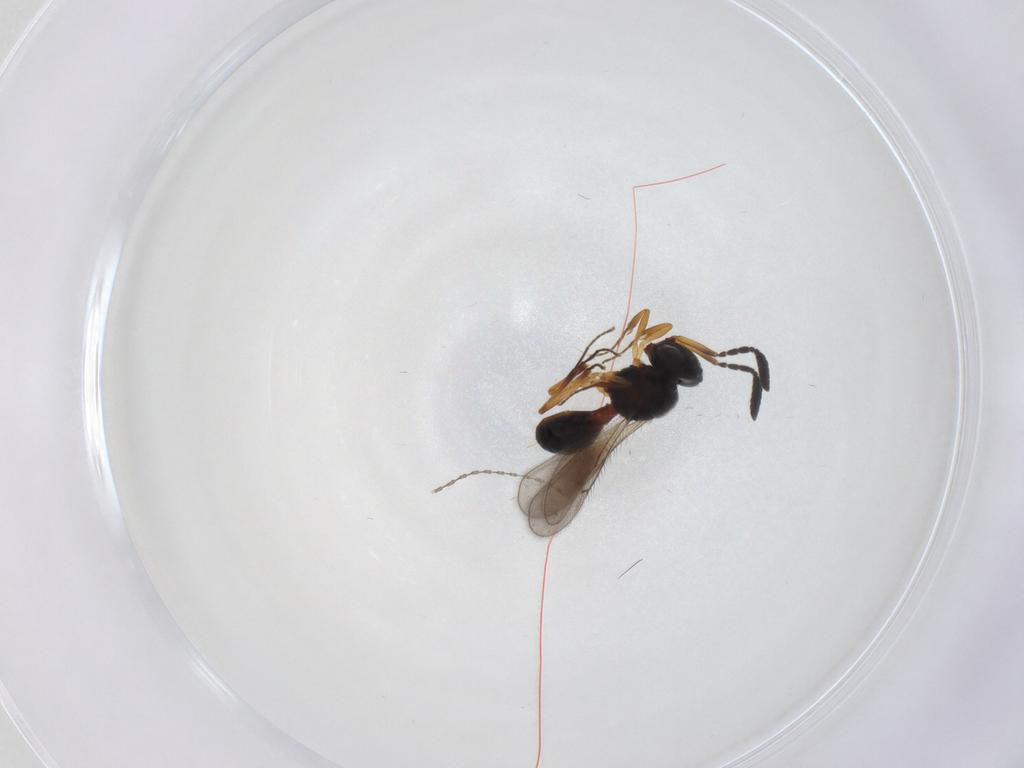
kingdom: Animalia
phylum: Arthropoda
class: Insecta
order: Hymenoptera
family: Scelionidae
